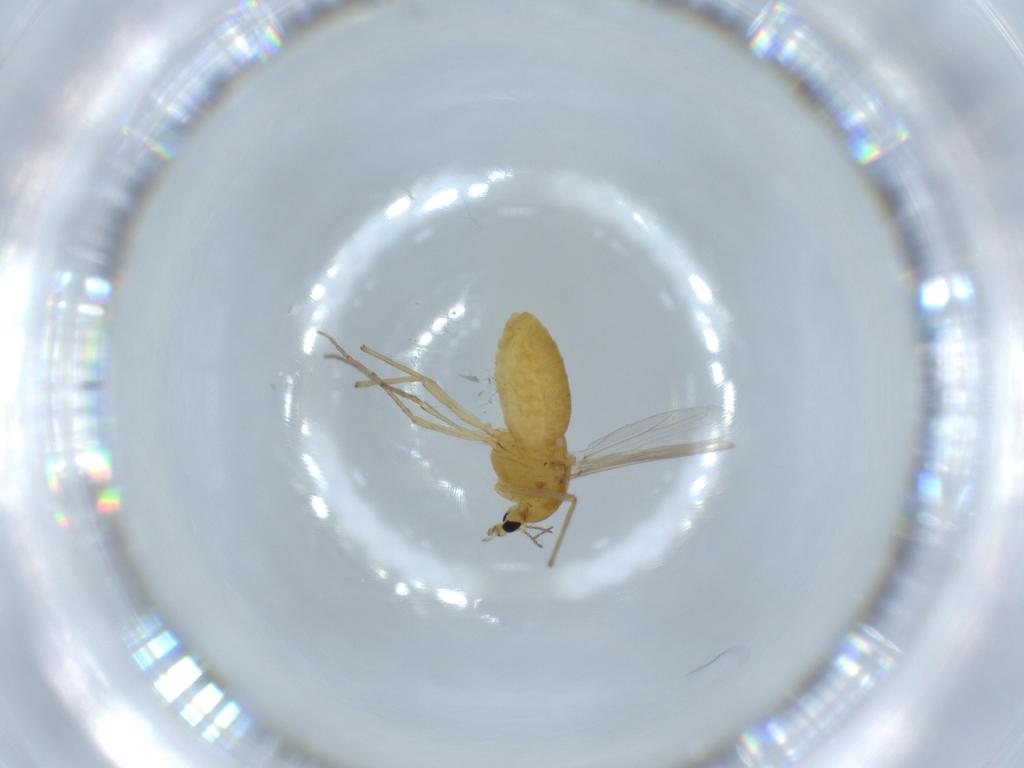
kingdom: Animalia
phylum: Arthropoda
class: Insecta
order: Diptera
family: Chironomidae
